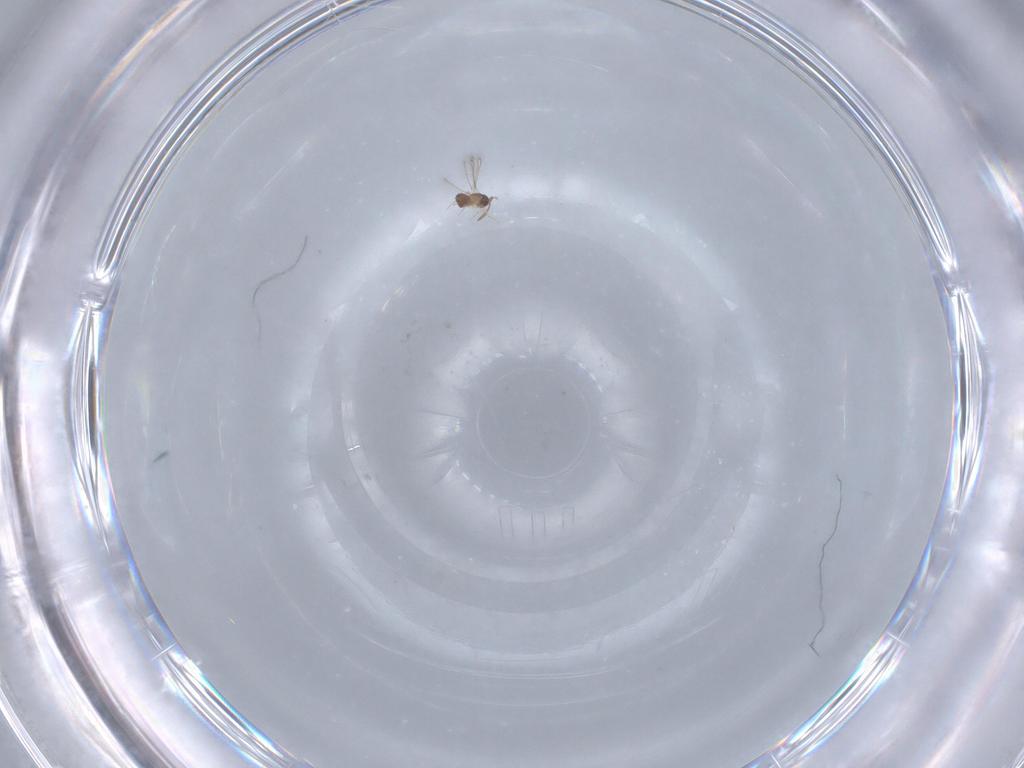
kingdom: Animalia
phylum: Arthropoda
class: Insecta
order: Hymenoptera
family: Mymaridae
